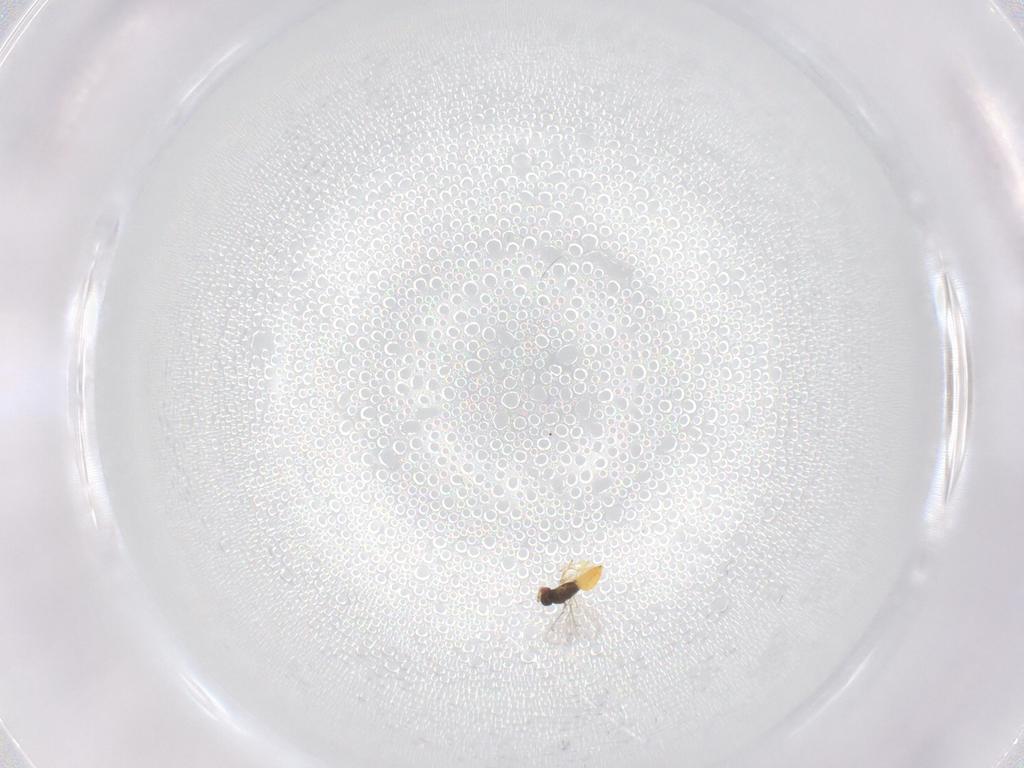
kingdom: Animalia
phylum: Arthropoda
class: Insecta
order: Hymenoptera
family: Eulophidae
